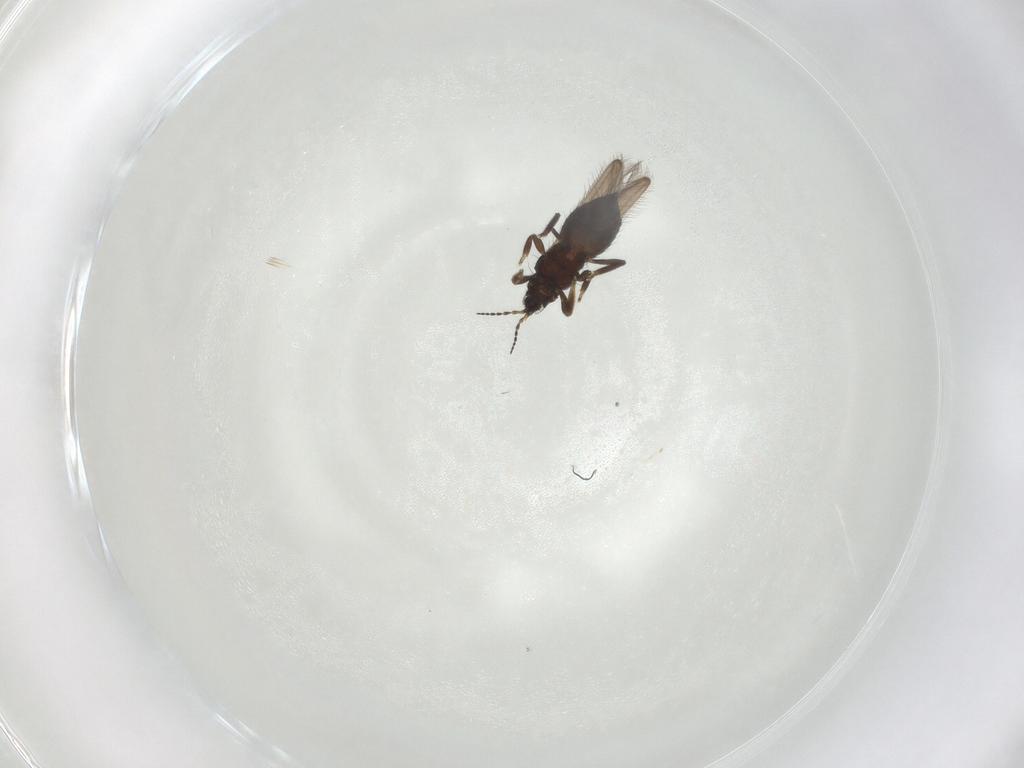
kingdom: Animalia
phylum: Arthropoda
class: Insecta
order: Thysanoptera
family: Melanthripidae
